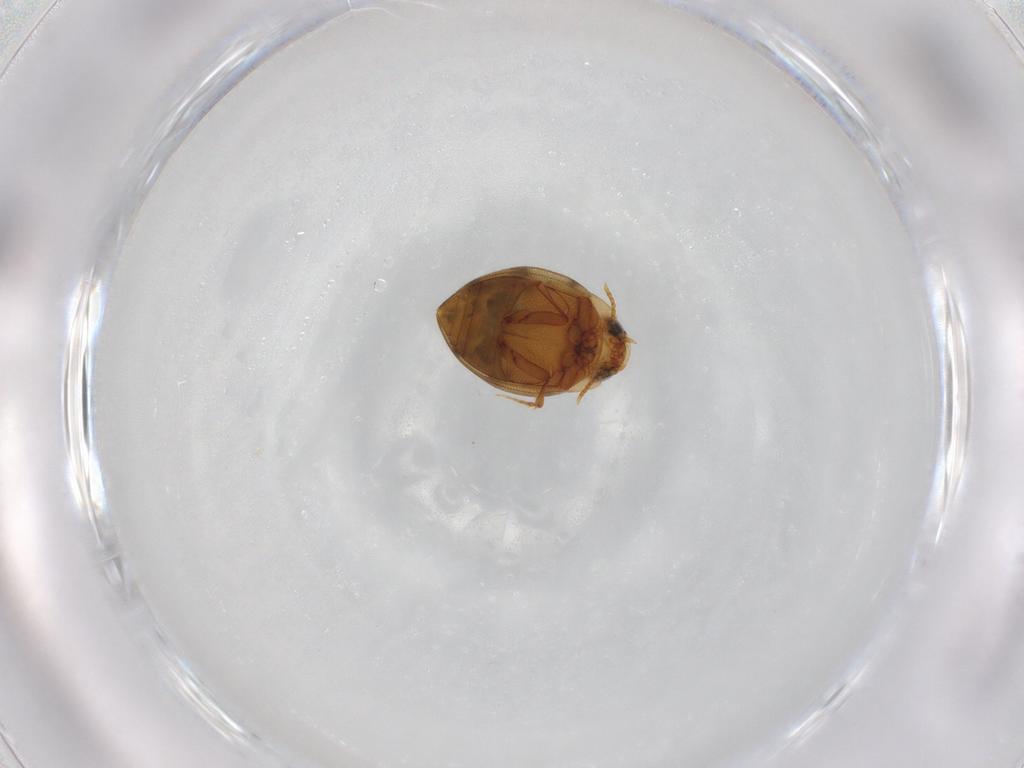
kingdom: Animalia
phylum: Arthropoda
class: Insecta
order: Coleoptera
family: Dytiscidae
